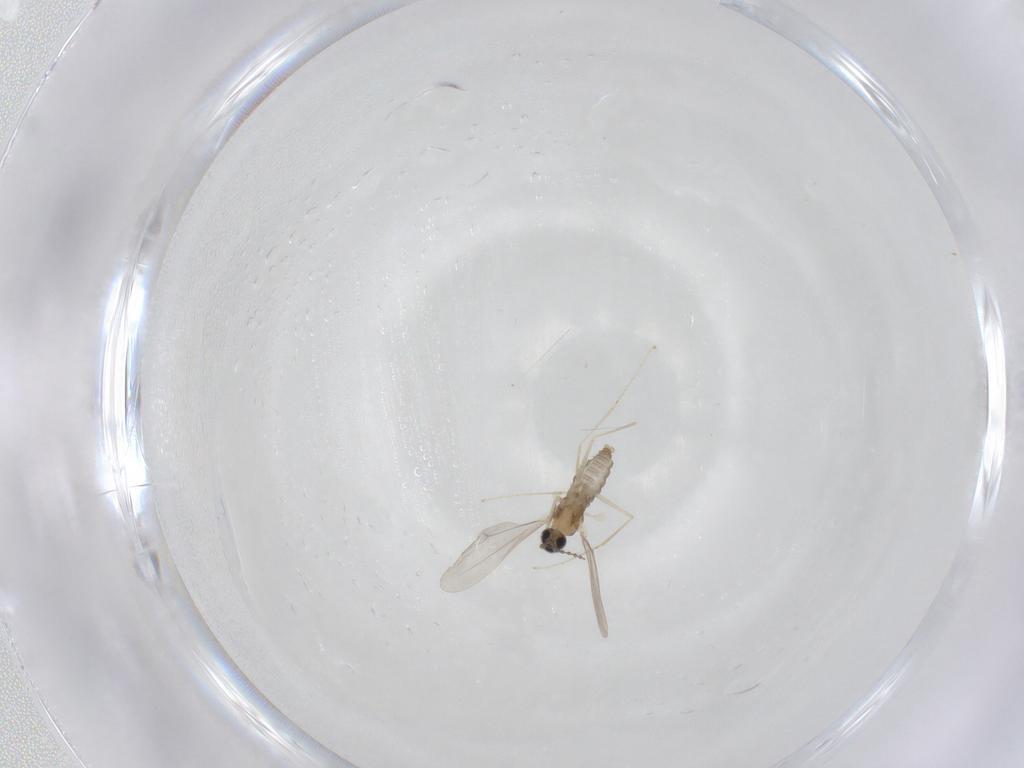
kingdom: Animalia
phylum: Arthropoda
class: Insecta
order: Diptera
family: Cecidomyiidae
